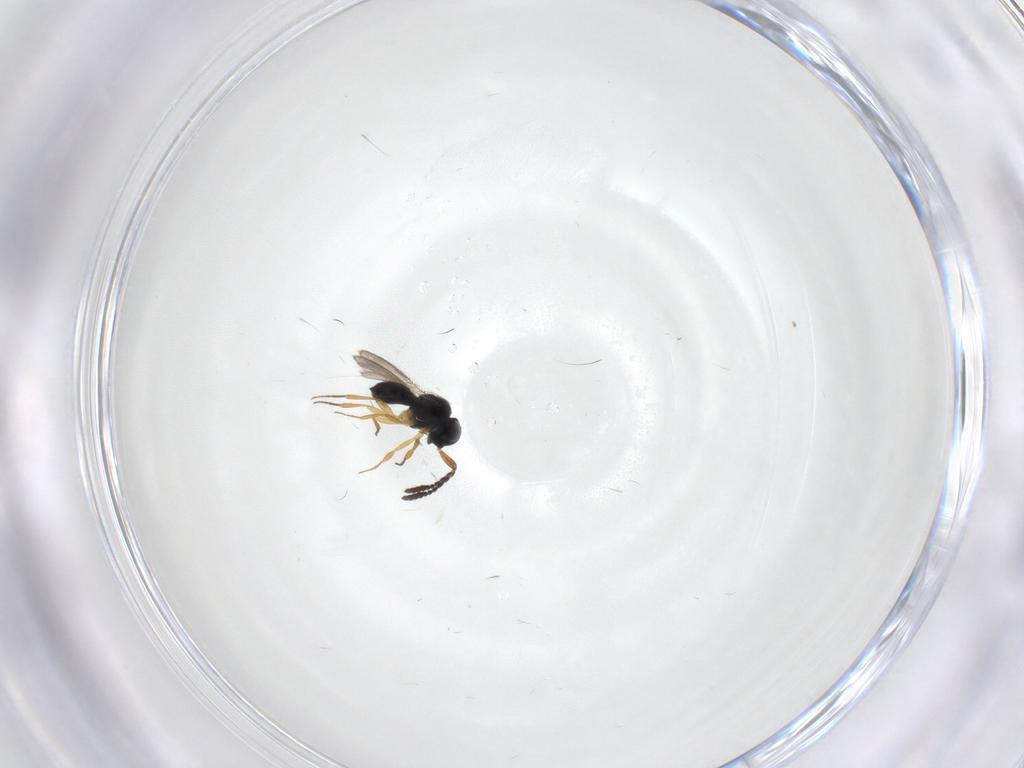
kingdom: Animalia
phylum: Arthropoda
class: Insecta
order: Hymenoptera
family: Scelionidae
